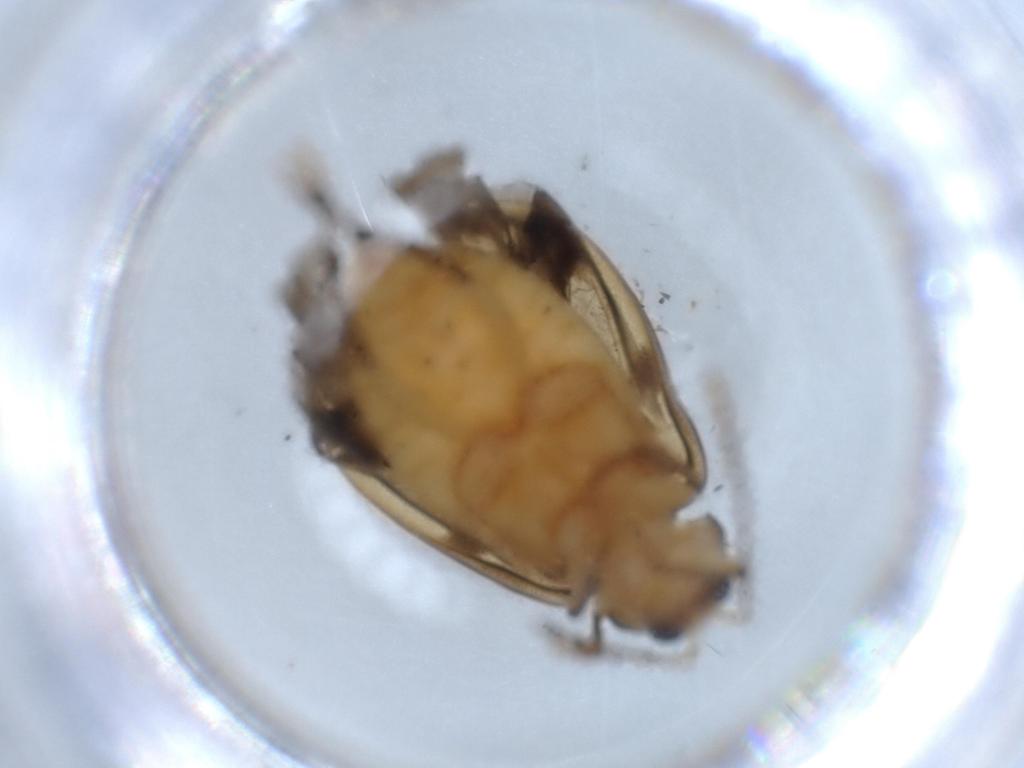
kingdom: Animalia
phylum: Arthropoda
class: Insecta
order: Coleoptera
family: Chrysomelidae
